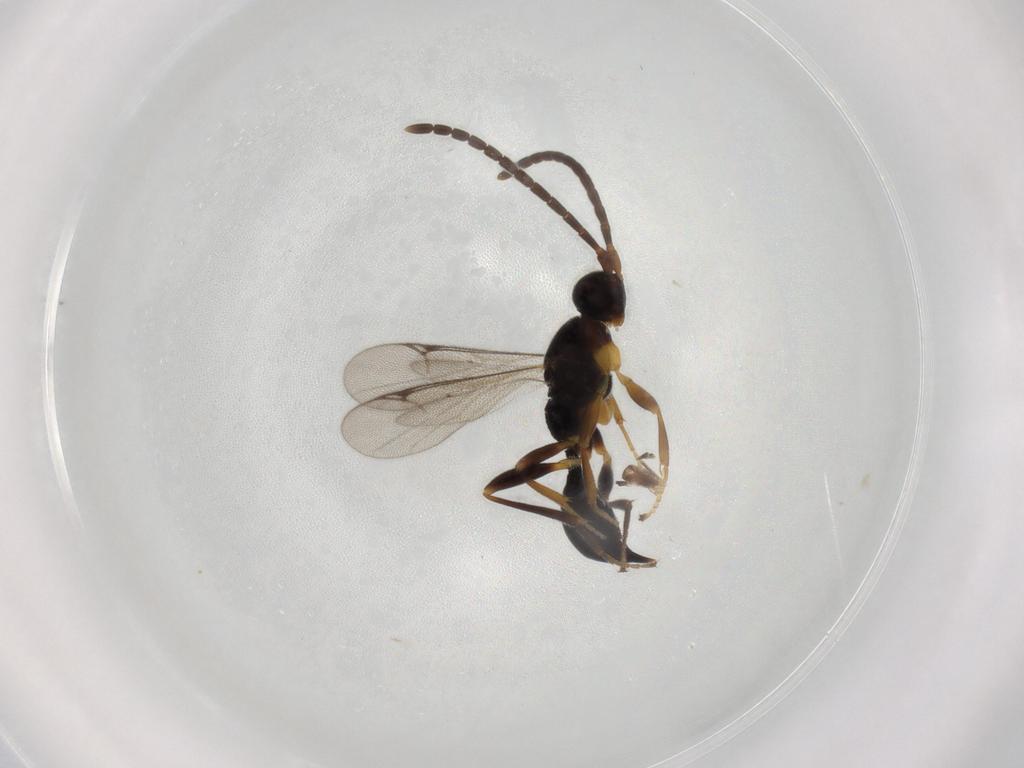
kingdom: Animalia
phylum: Arthropoda
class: Insecta
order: Hymenoptera
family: Proctotrupidae
